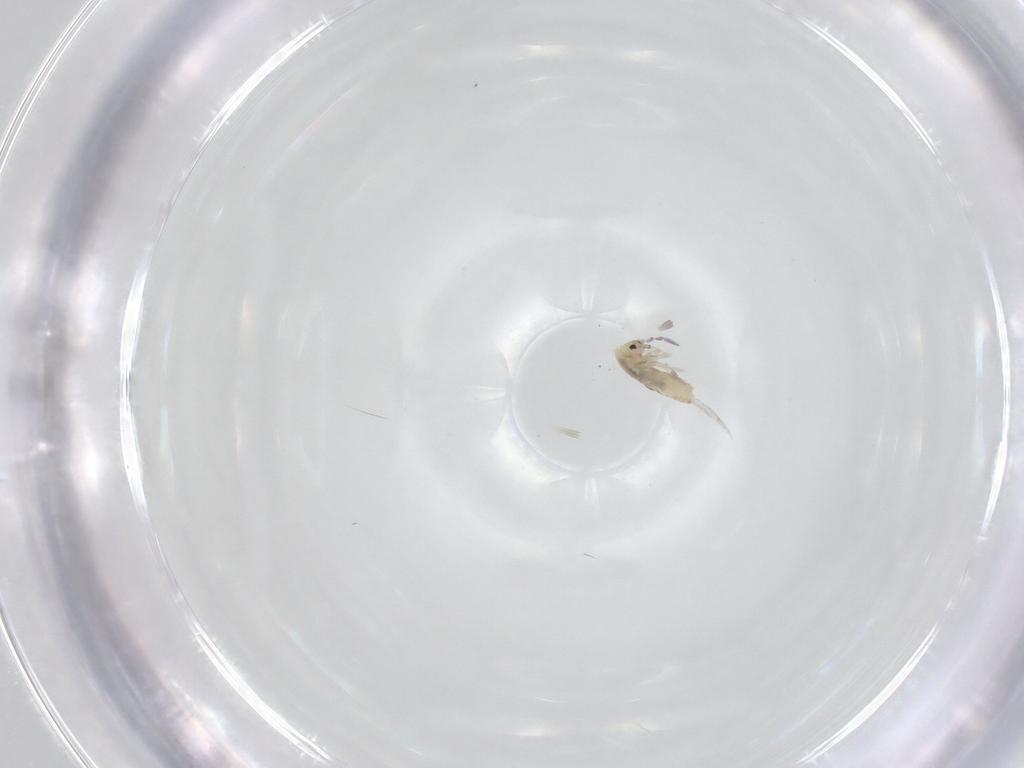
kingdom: Animalia
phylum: Arthropoda
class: Collembola
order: Entomobryomorpha
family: Entomobryidae
